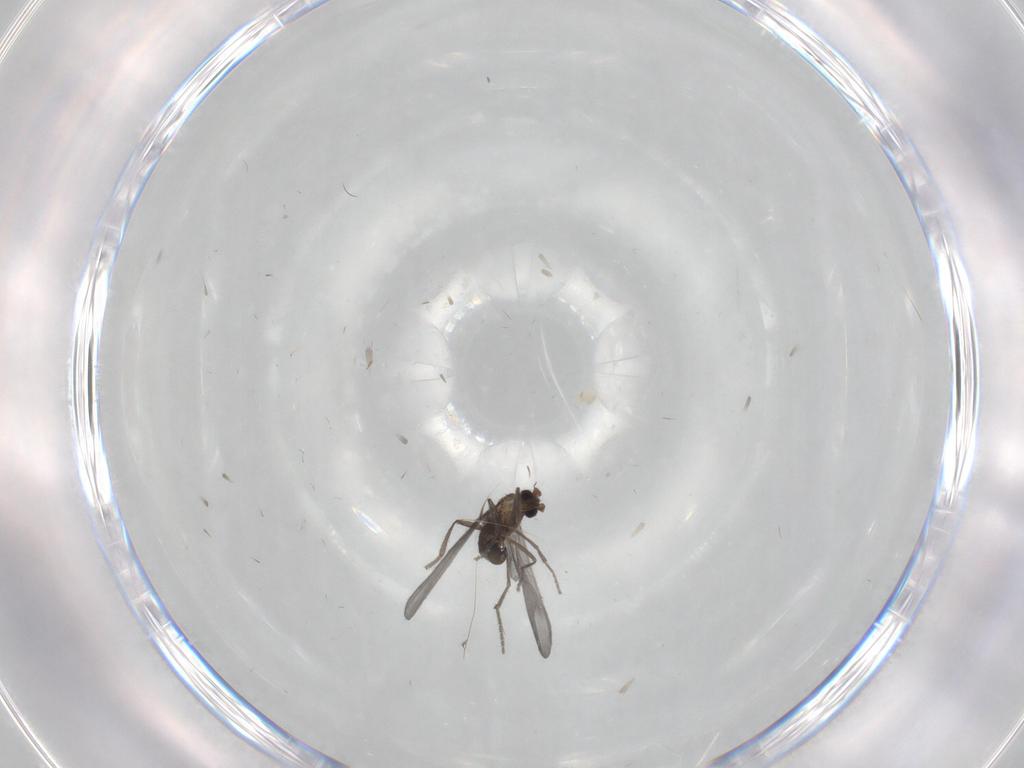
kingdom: Animalia
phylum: Arthropoda
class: Insecta
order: Diptera
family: Phoridae
